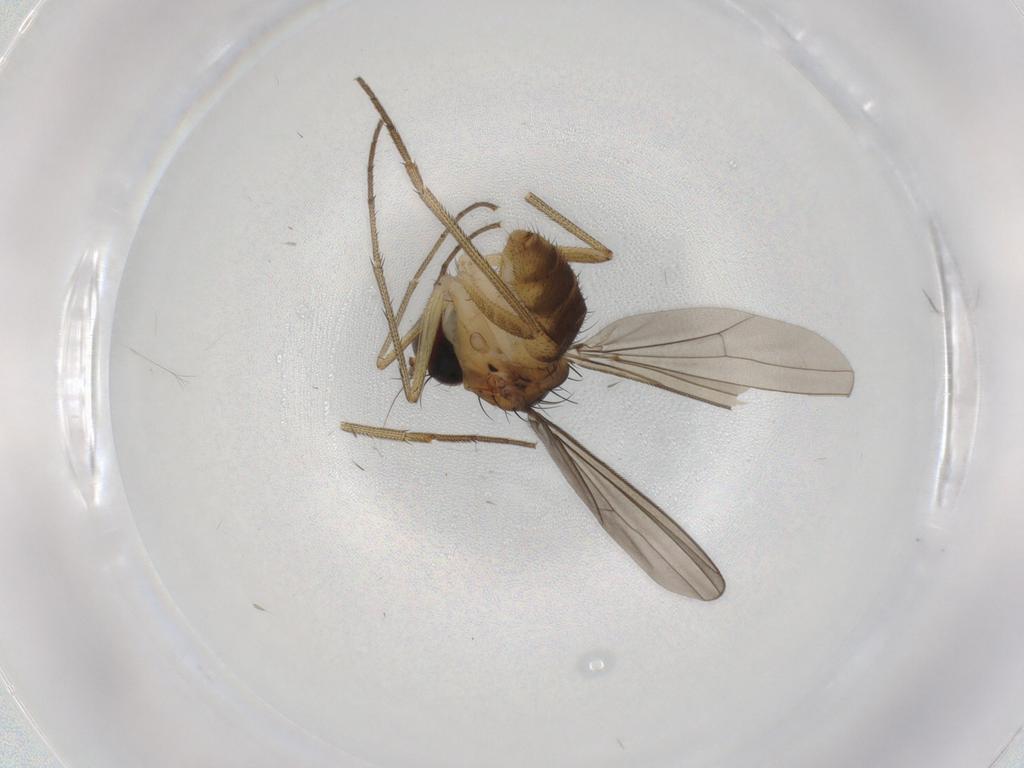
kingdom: Animalia
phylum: Arthropoda
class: Insecta
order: Diptera
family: Dolichopodidae
